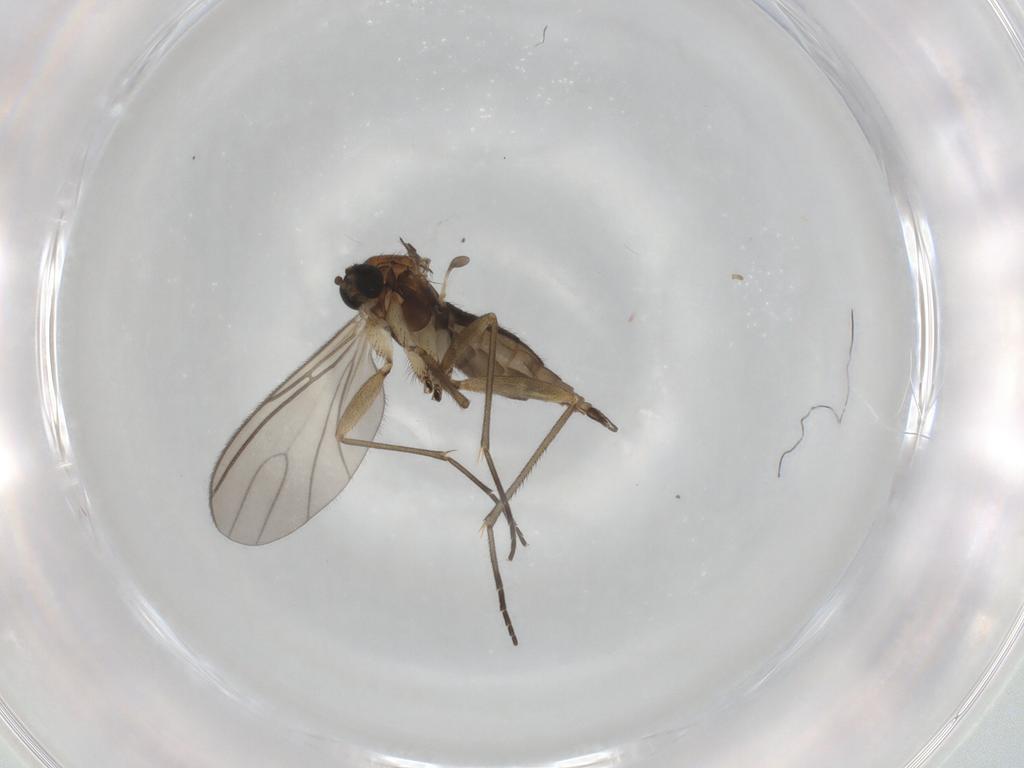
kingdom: Animalia
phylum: Arthropoda
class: Insecta
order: Diptera
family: Sciaridae
